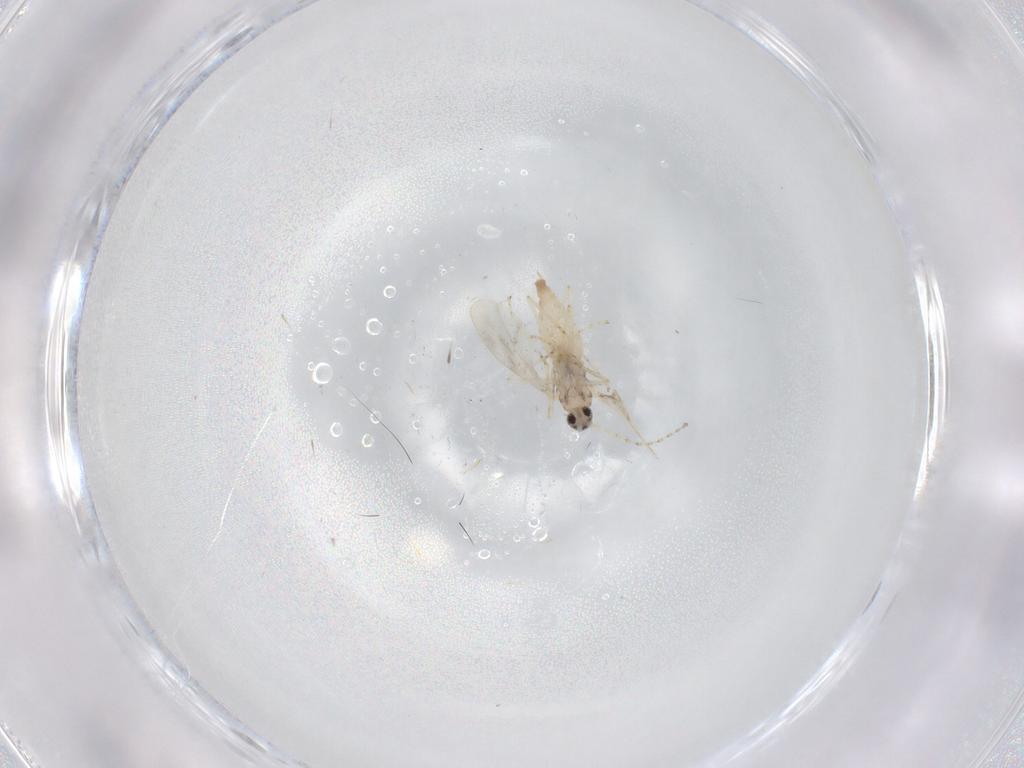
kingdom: Animalia
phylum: Arthropoda
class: Insecta
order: Diptera
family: Cecidomyiidae
